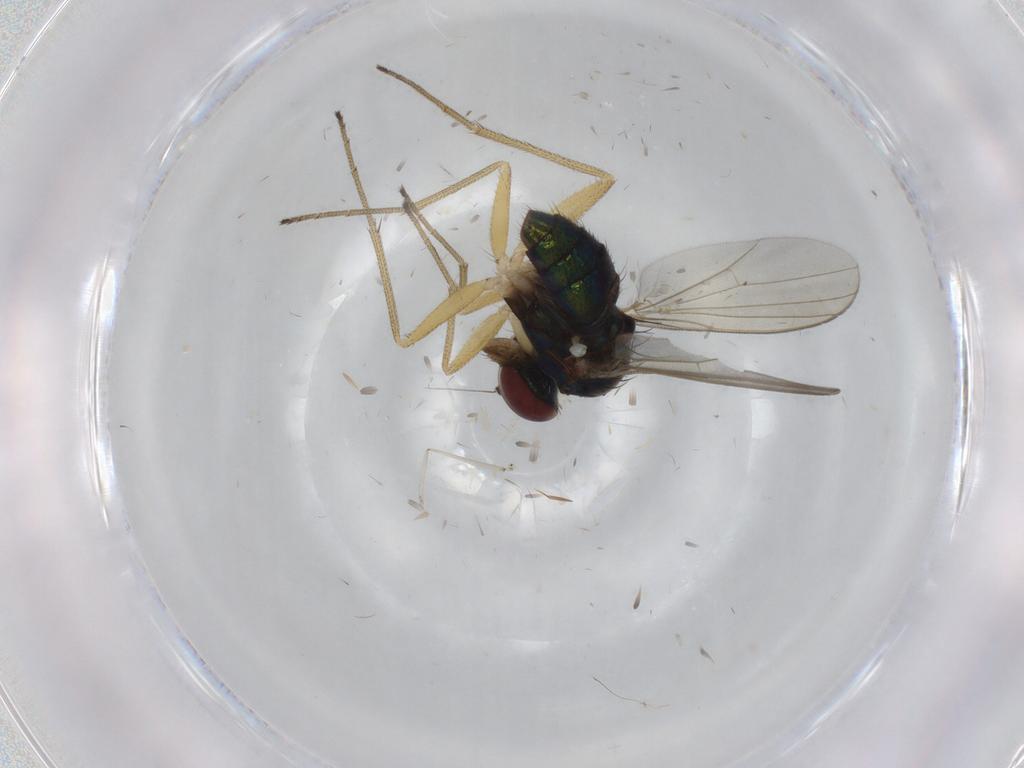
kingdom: Animalia
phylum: Arthropoda
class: Insecta
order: Diptera
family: Dolichopodidae
